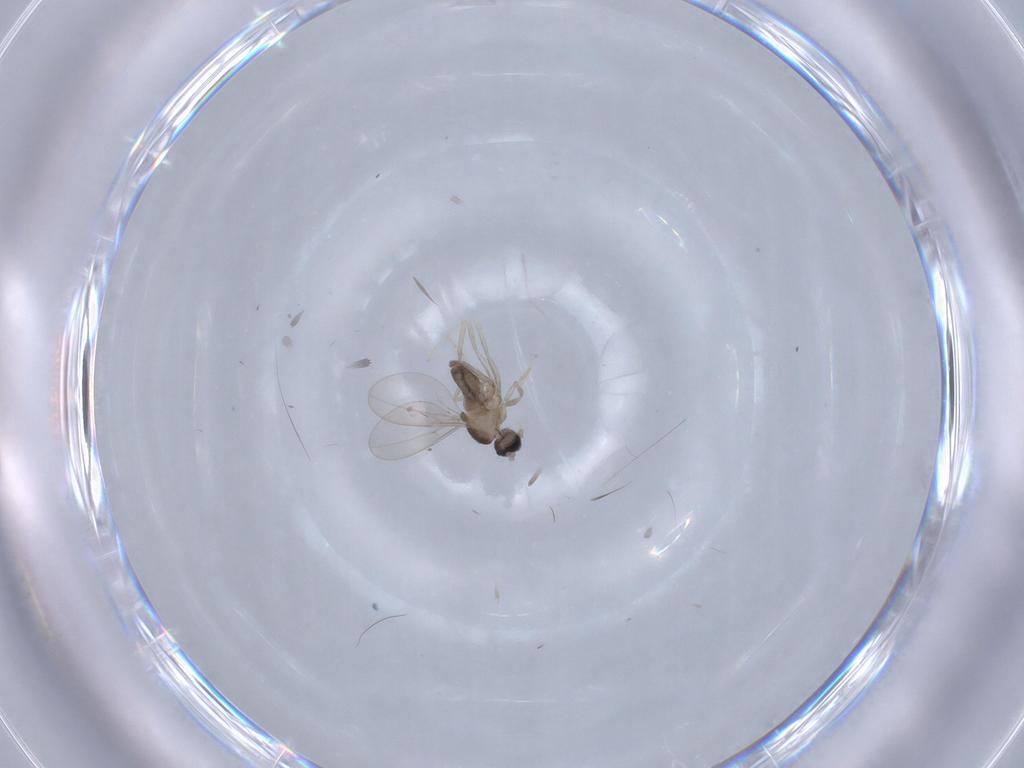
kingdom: Animalia
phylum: Arthropoda
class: Insecta
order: Diptera
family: Cecidomyiidae
